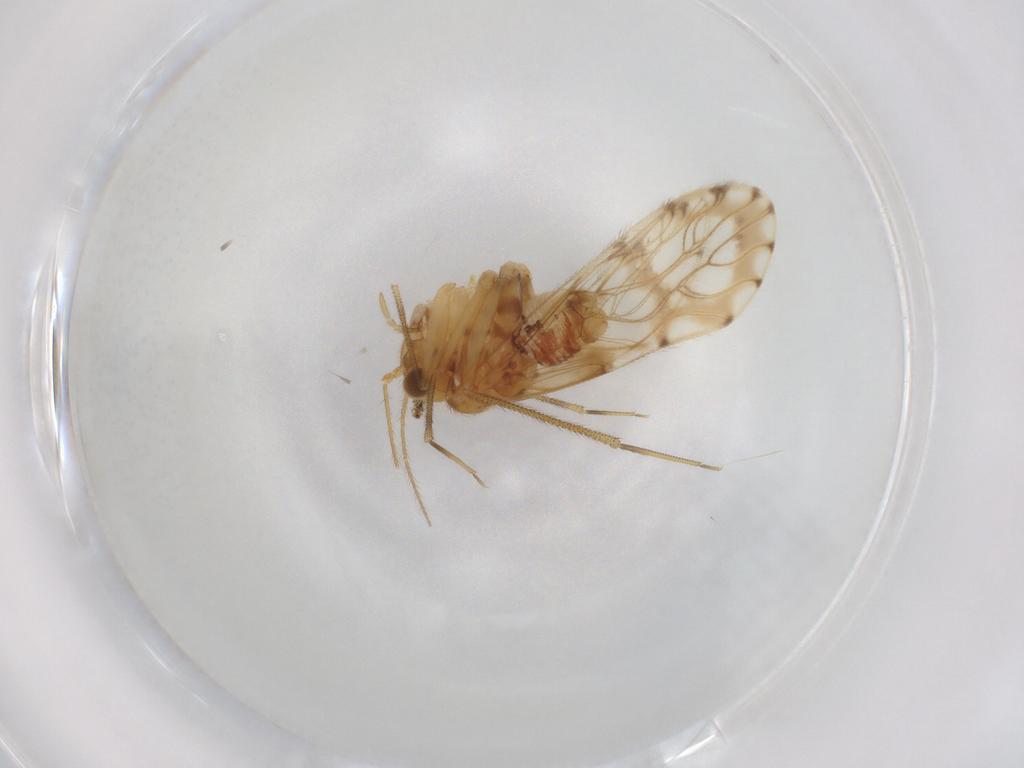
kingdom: Animalia
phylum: Arthropoda
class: Insecta
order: Psocodea
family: Epipsocidae
